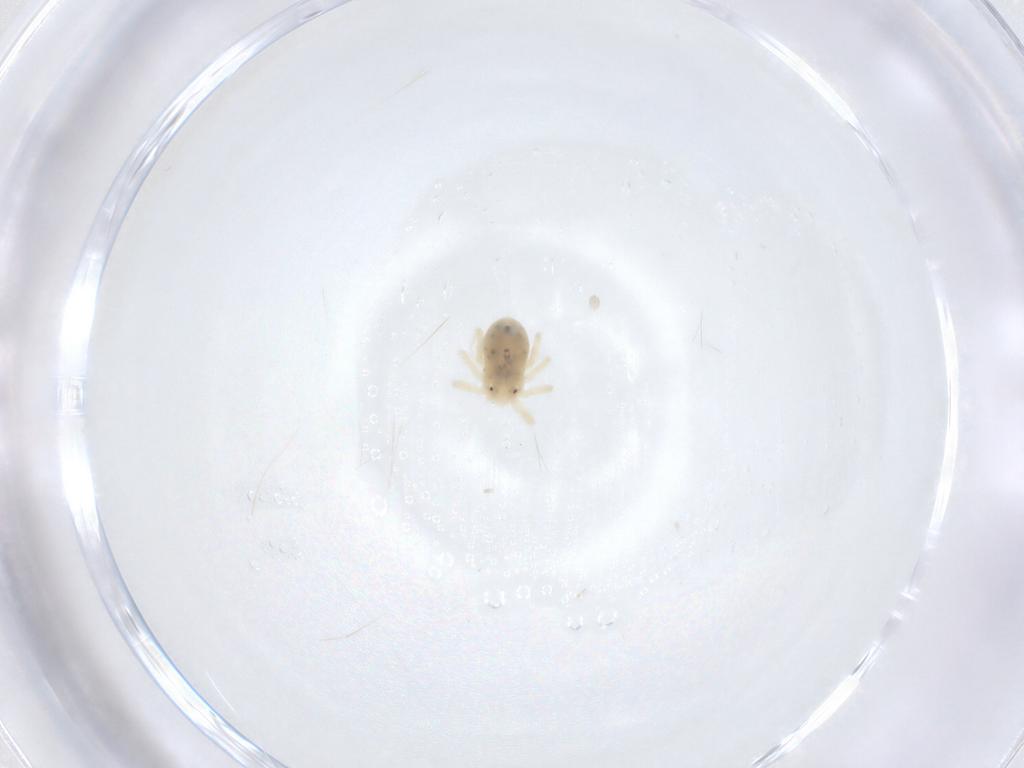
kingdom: Animalia
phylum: Arthropoda
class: Arachnida
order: Trombidiformes
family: Anystidae
